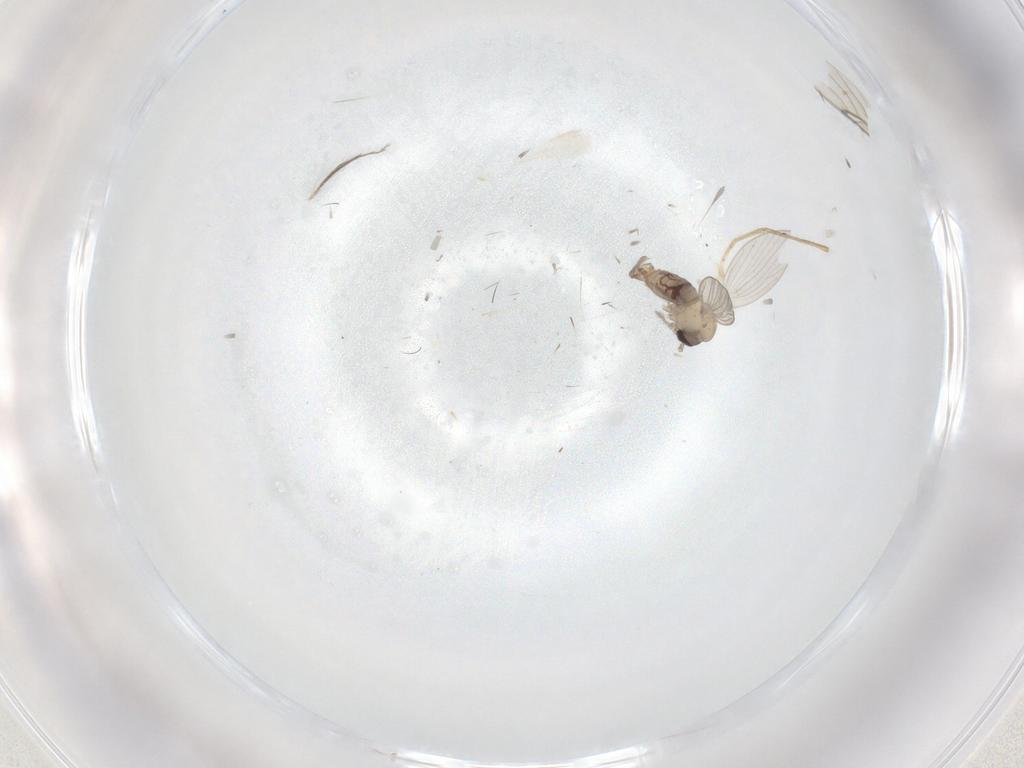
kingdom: Animalia
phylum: Arthropoda
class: Insecta
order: Diptera
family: Psychodidae
